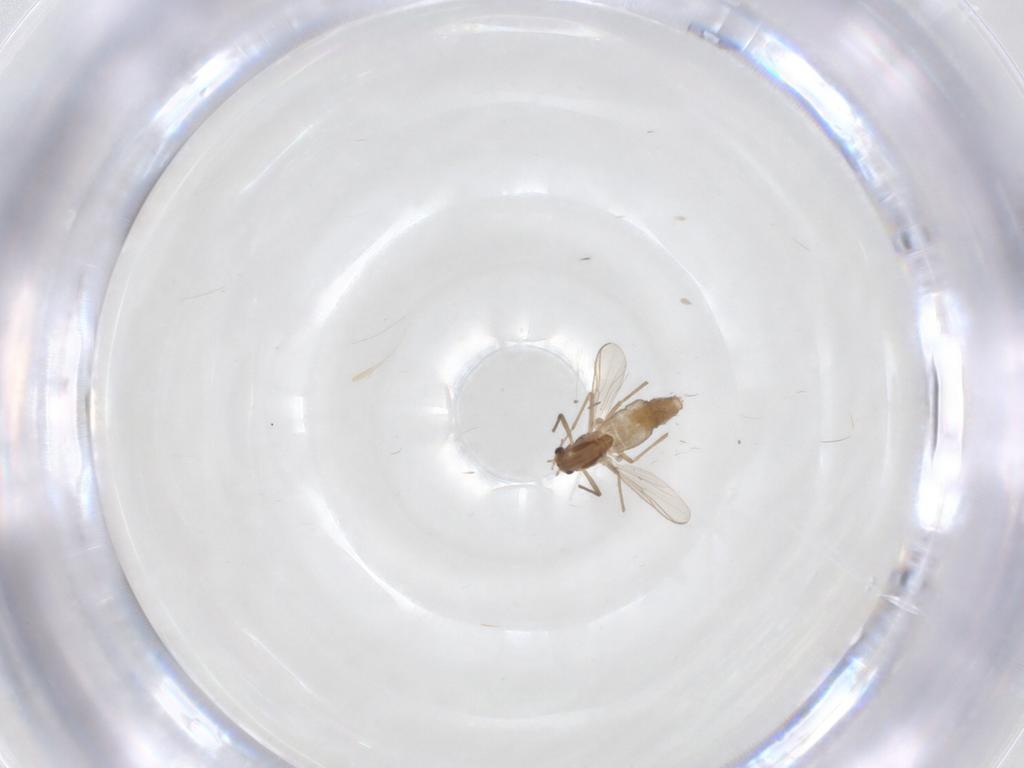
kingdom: Animalia
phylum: Arthropoda
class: Insecta
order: Diptera
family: Chironomidae
